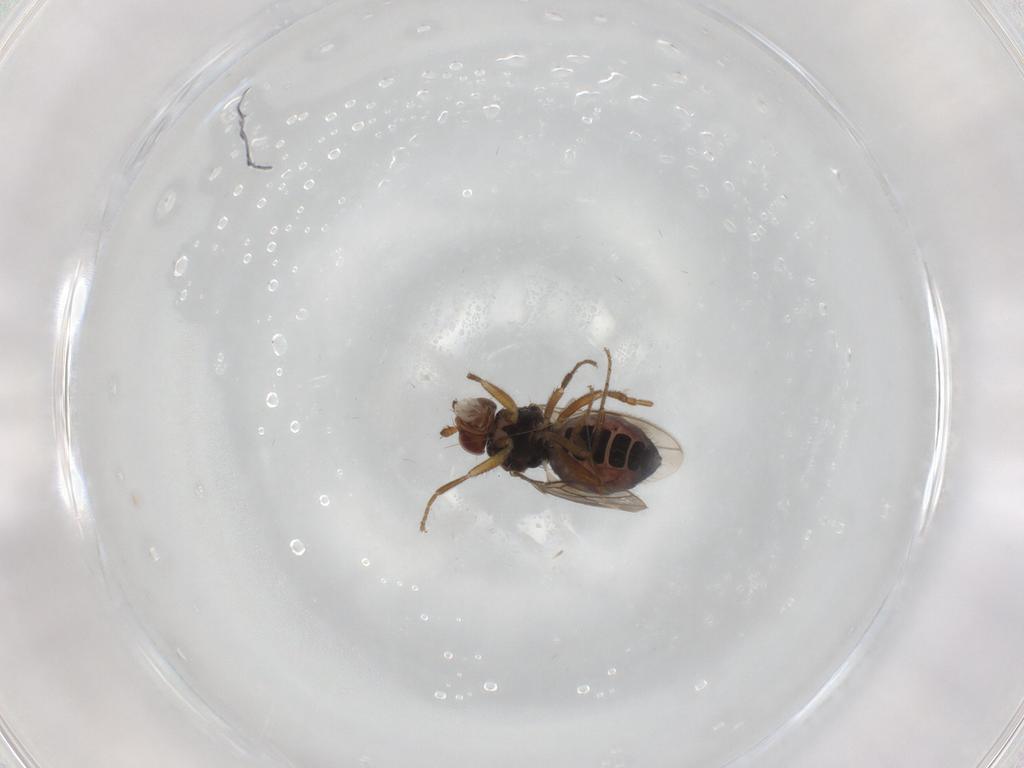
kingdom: Animalia
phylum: Arthropoda
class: Insecta
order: Diptera
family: Sphaeroceridae
